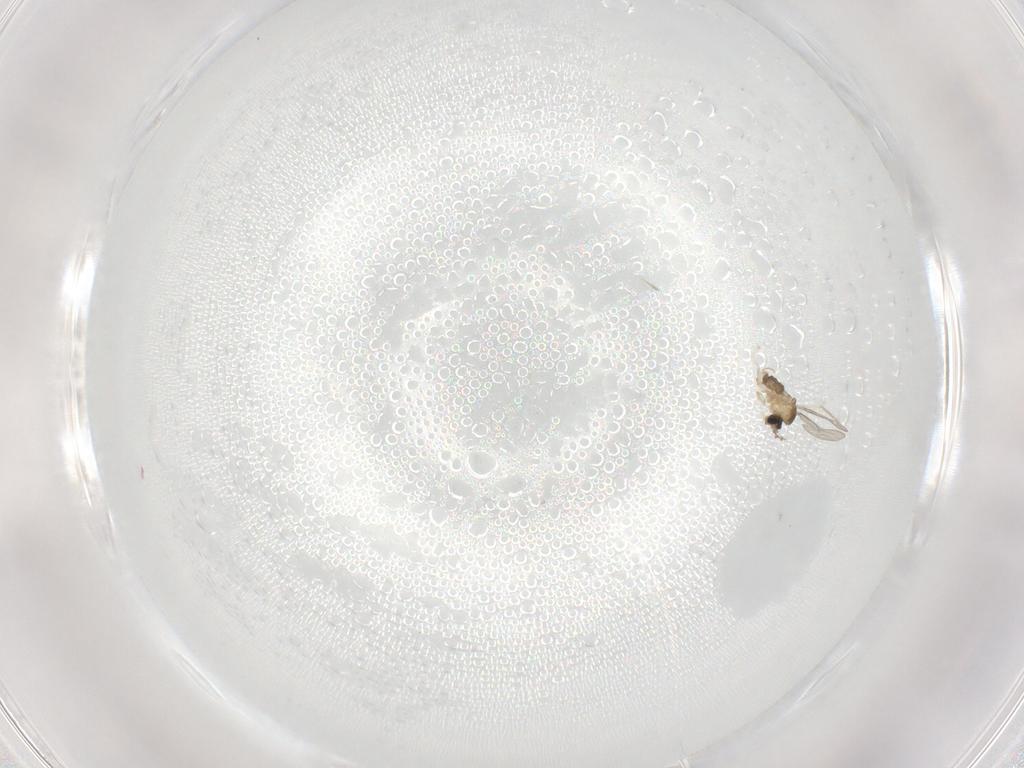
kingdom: Animalia
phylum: Arthropoda
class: Insecta
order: Diptera
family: Cecidomyiidae
